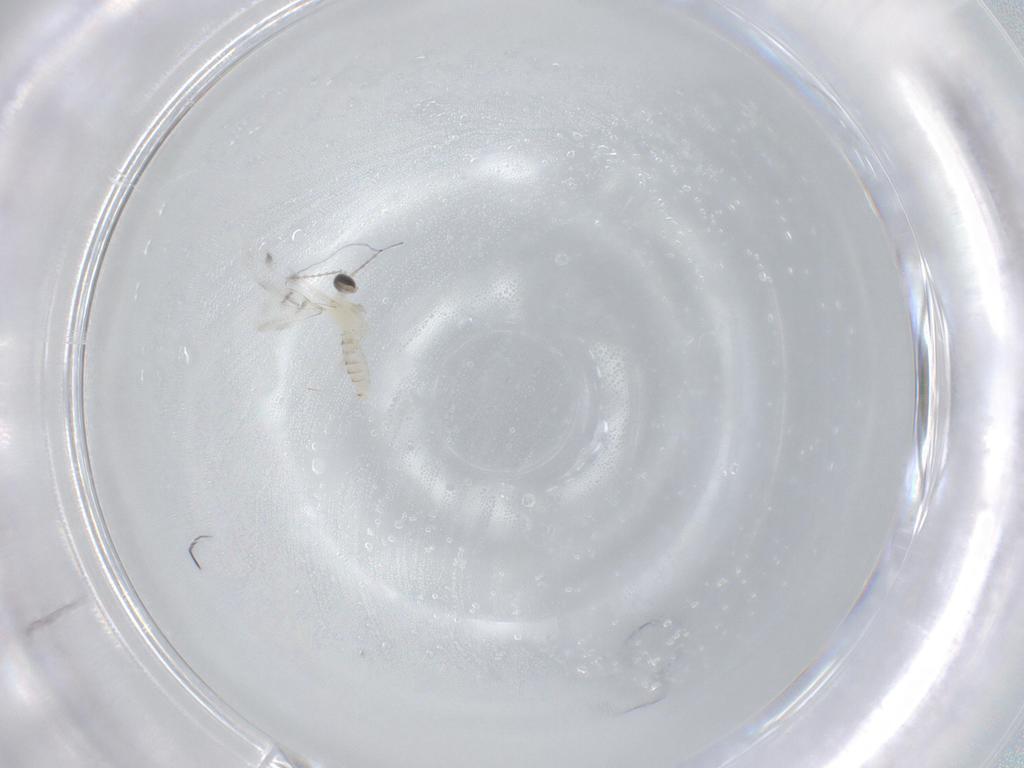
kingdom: Animalia
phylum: Arthropoda
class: Insecta
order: Diptera
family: Cecidomyiidae
